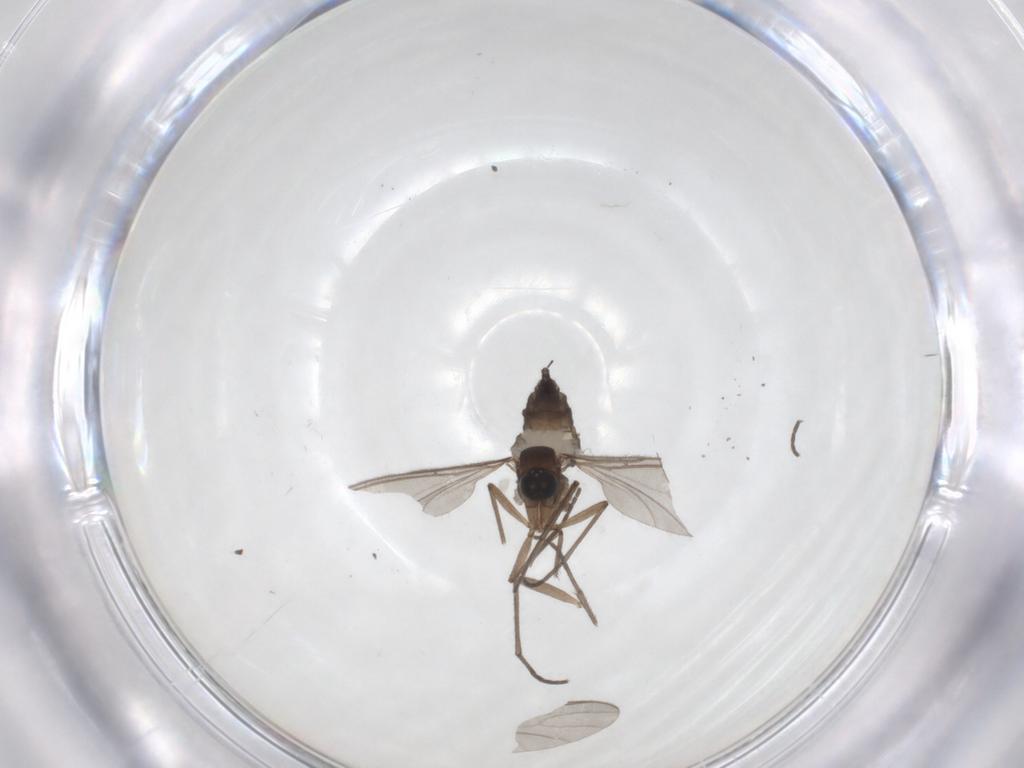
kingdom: Animalia
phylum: Arthropoda
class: Insecta
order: Diptera
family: Sciaridae
